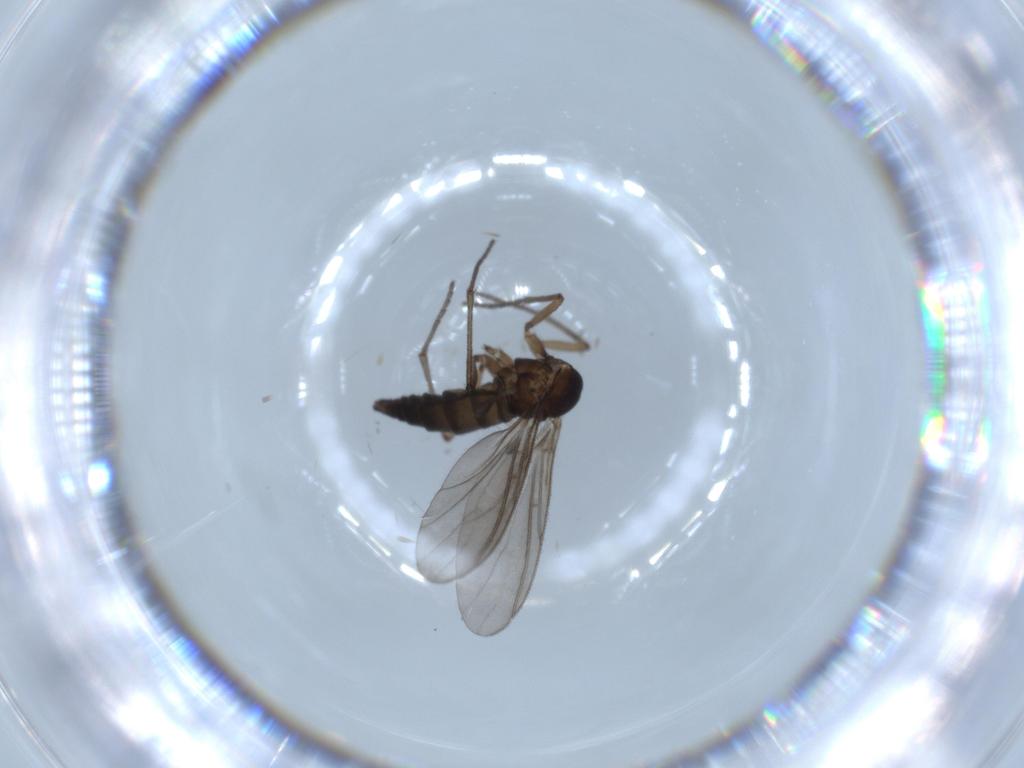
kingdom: Animalia
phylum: Arthropoda
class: Insecta
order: Diptera
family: Sciaridae
